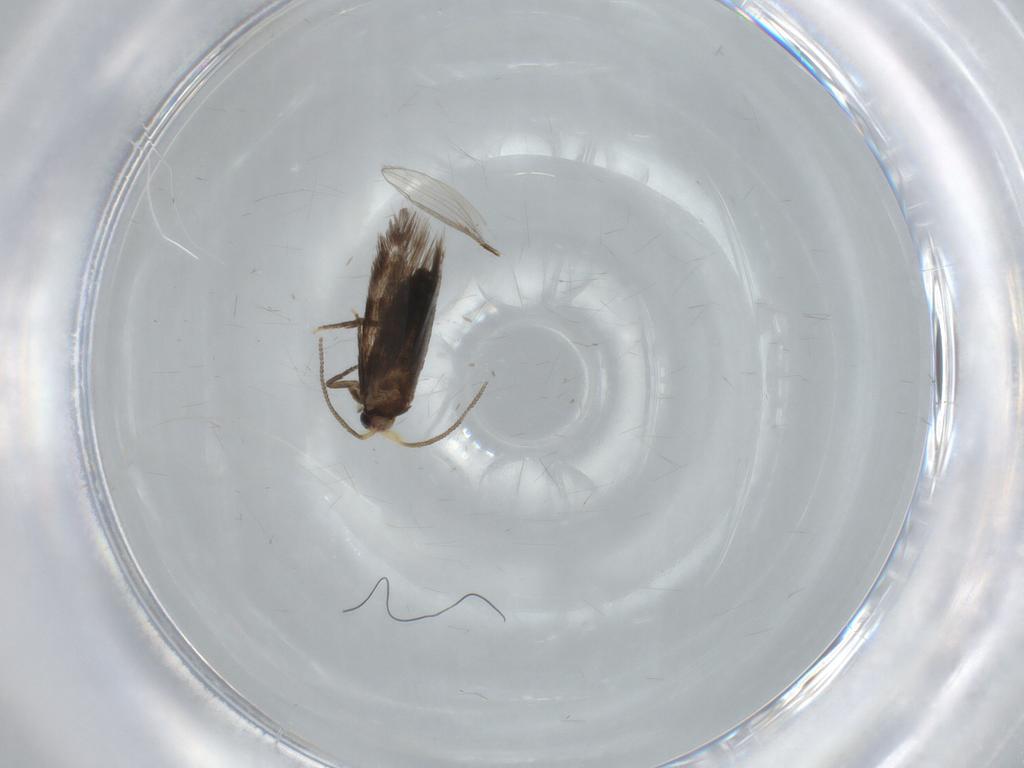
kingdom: Animalia
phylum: Arthropoda
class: Insecta
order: Lepidoptera
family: Nepticulidae
